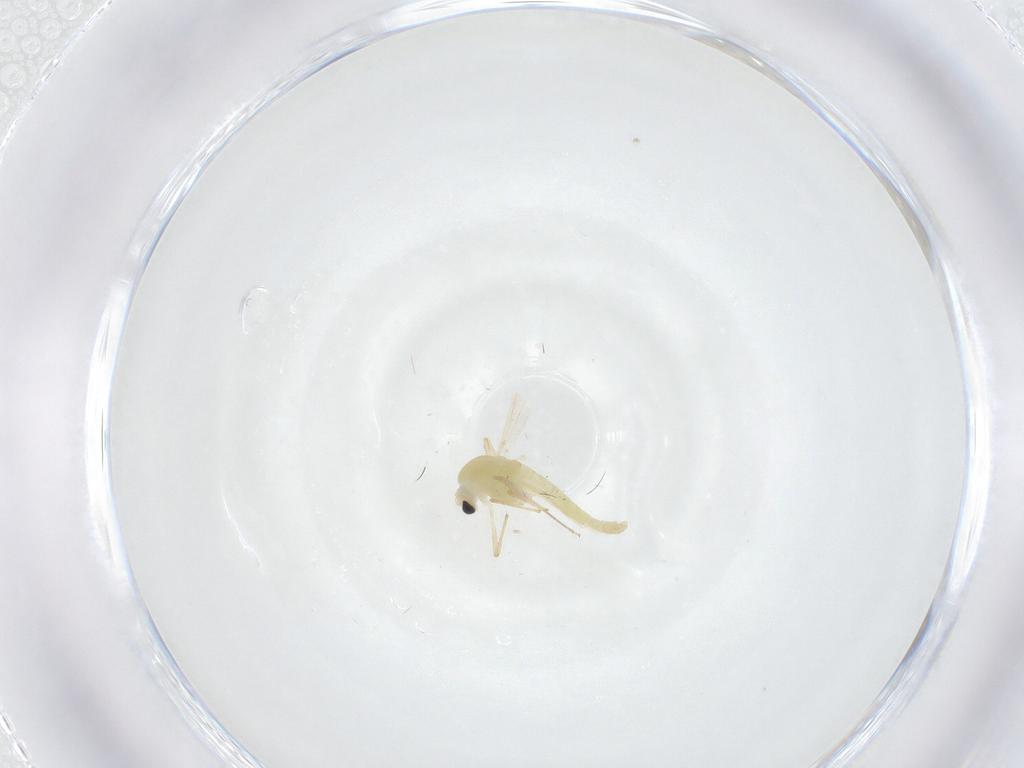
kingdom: Animalia
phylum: Arthropoda
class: Insecta
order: Diptera
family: Chironomidae
